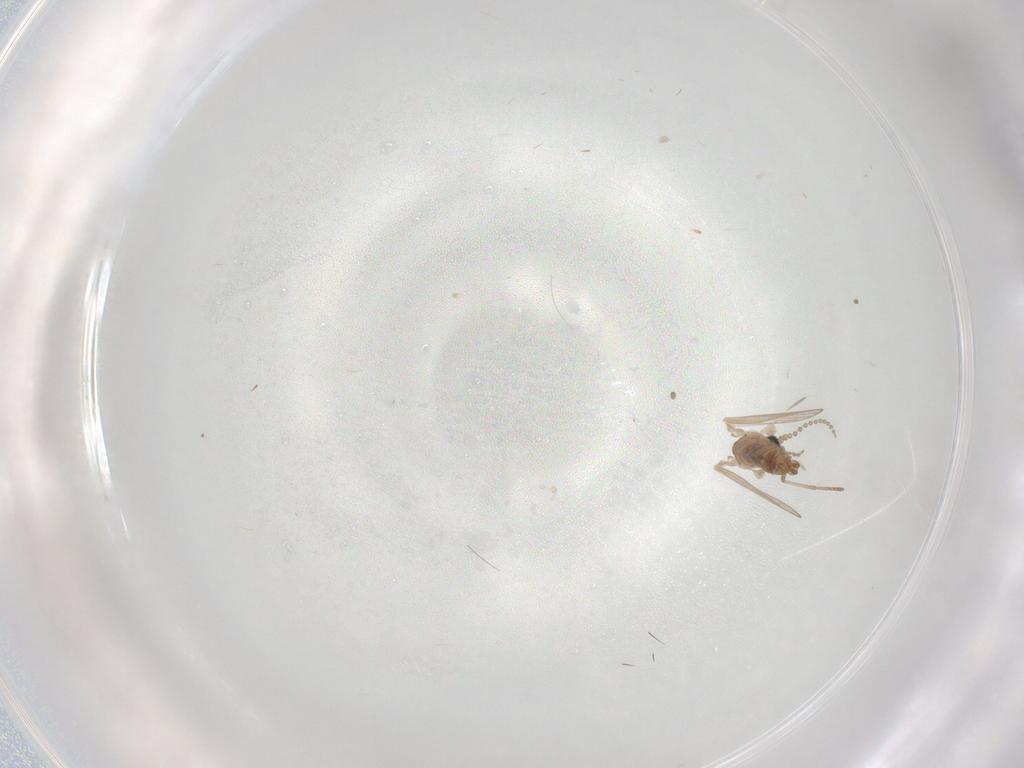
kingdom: Animalia
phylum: Arthropoda
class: Insecta
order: Diptera
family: Psychodidae
